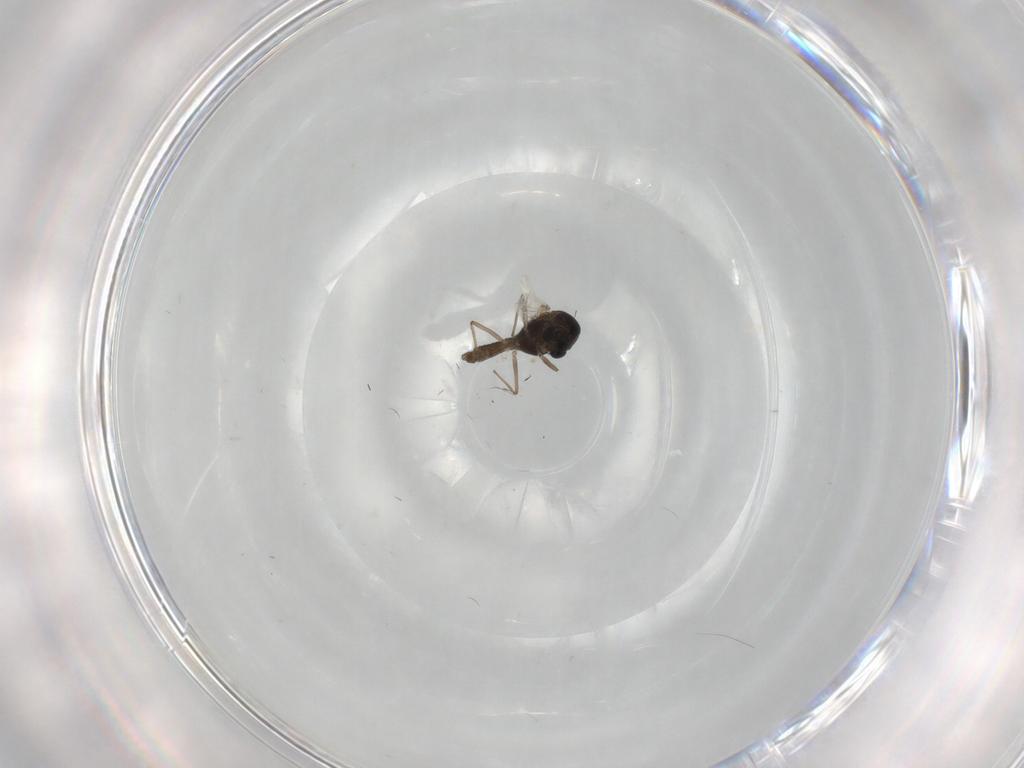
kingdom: Animalia
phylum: Arthropoda
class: Insecta
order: Diptera
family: Chironomidae
